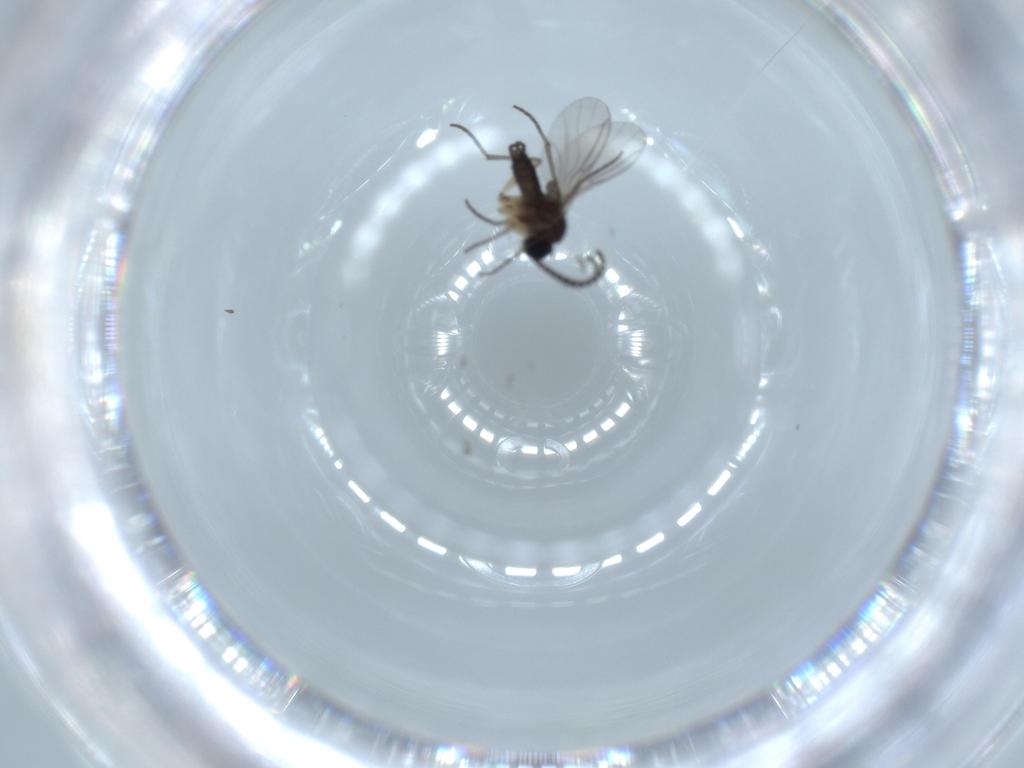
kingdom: Animalia
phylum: Arthropoda
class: Insecta
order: Diptera
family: Sciaridae
